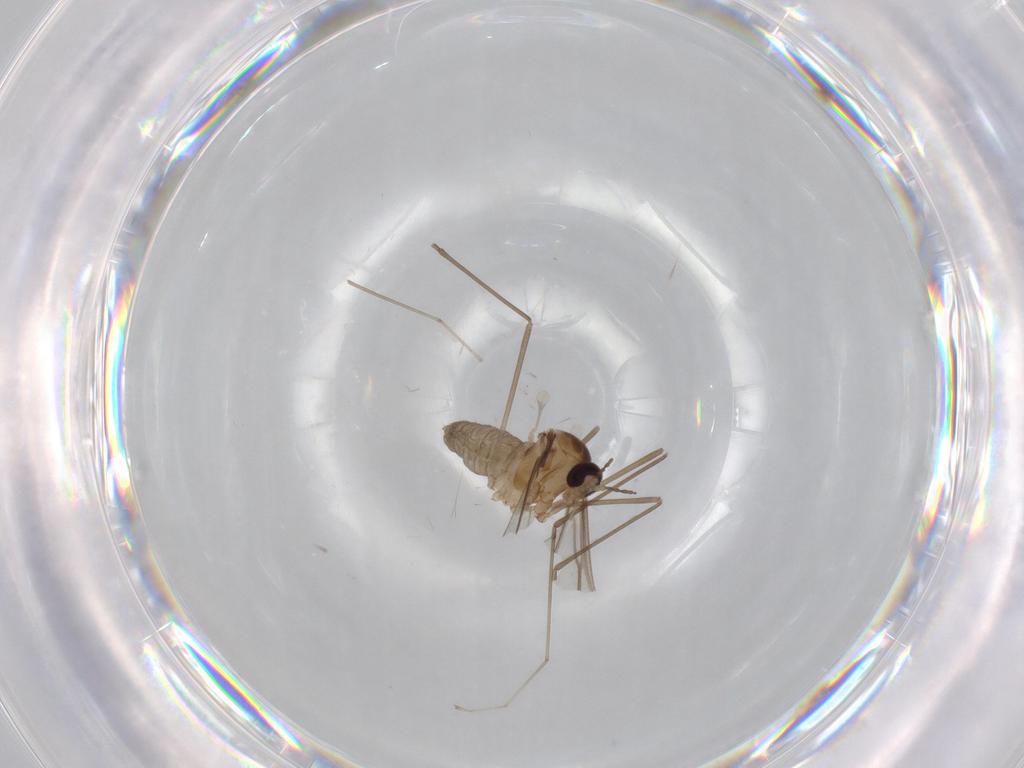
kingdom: Animalia
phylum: Arthropoda
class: Insecta
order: Diptera
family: Cecidomyiidae
